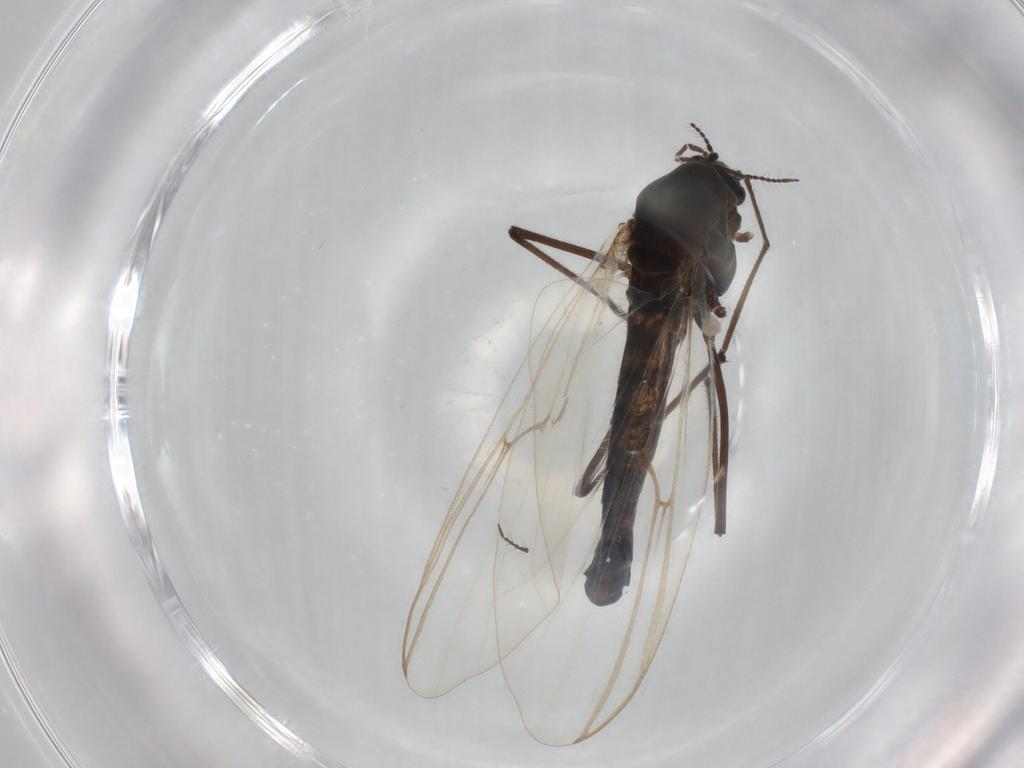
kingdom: Animalia
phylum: Arthropoda
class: Insecta
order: Diptera
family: Chironomidae
